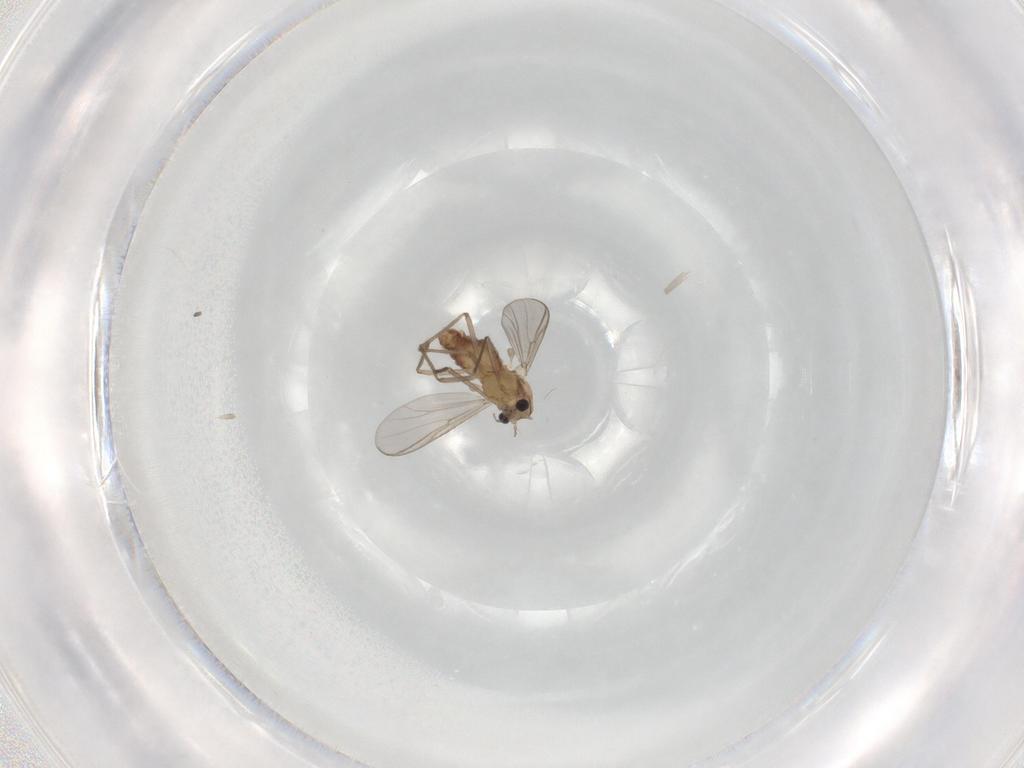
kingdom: Animalia
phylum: Arthropoda
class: Insecta
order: Diptera
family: Chironomidae
